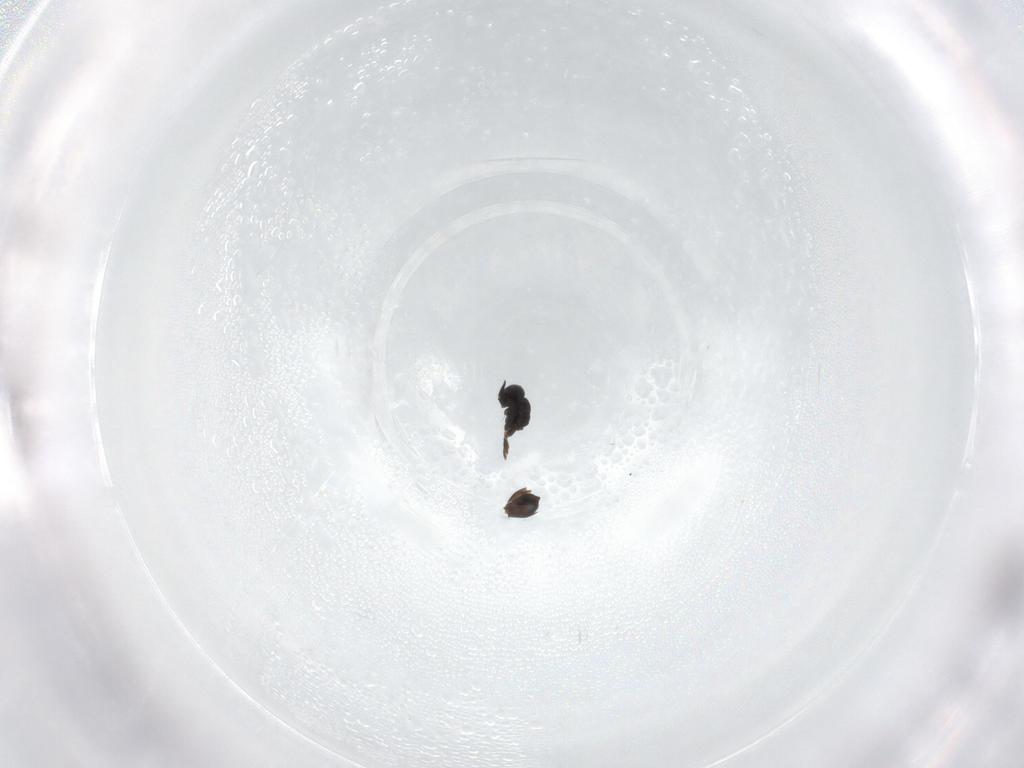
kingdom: Animalia
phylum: Arthropoda
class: Insecta
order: Hymenoptera
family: Scelionidae
